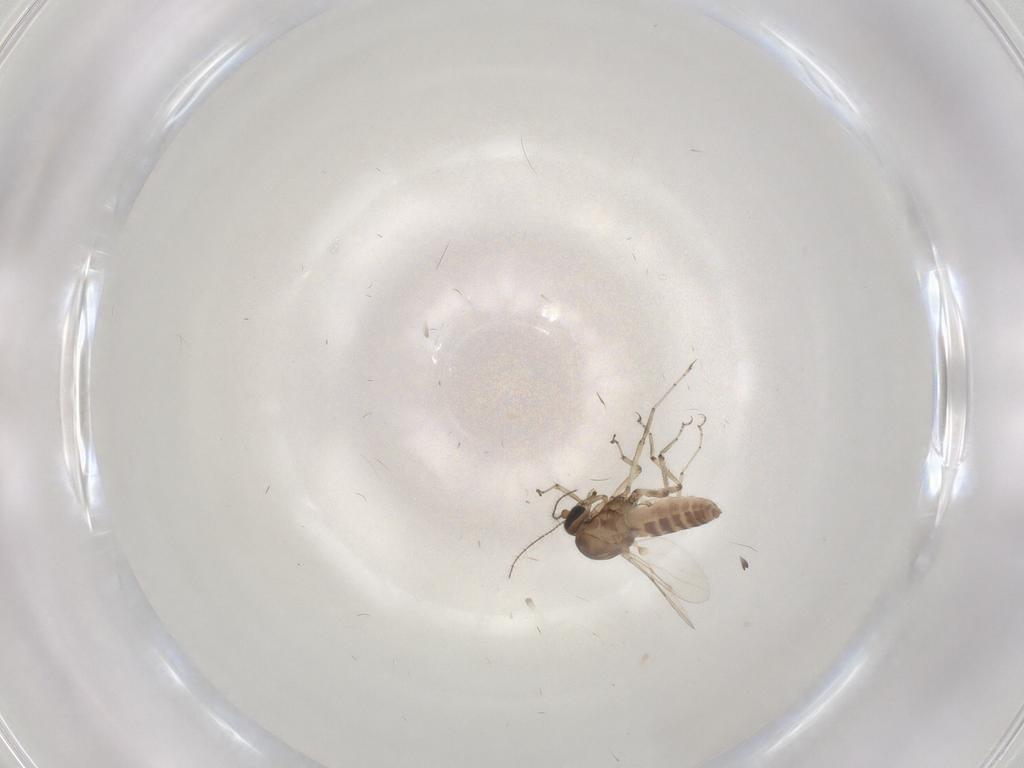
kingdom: Animalia
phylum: Arthropoda
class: Insecta
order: Diptera
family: Ceratopogonidae
